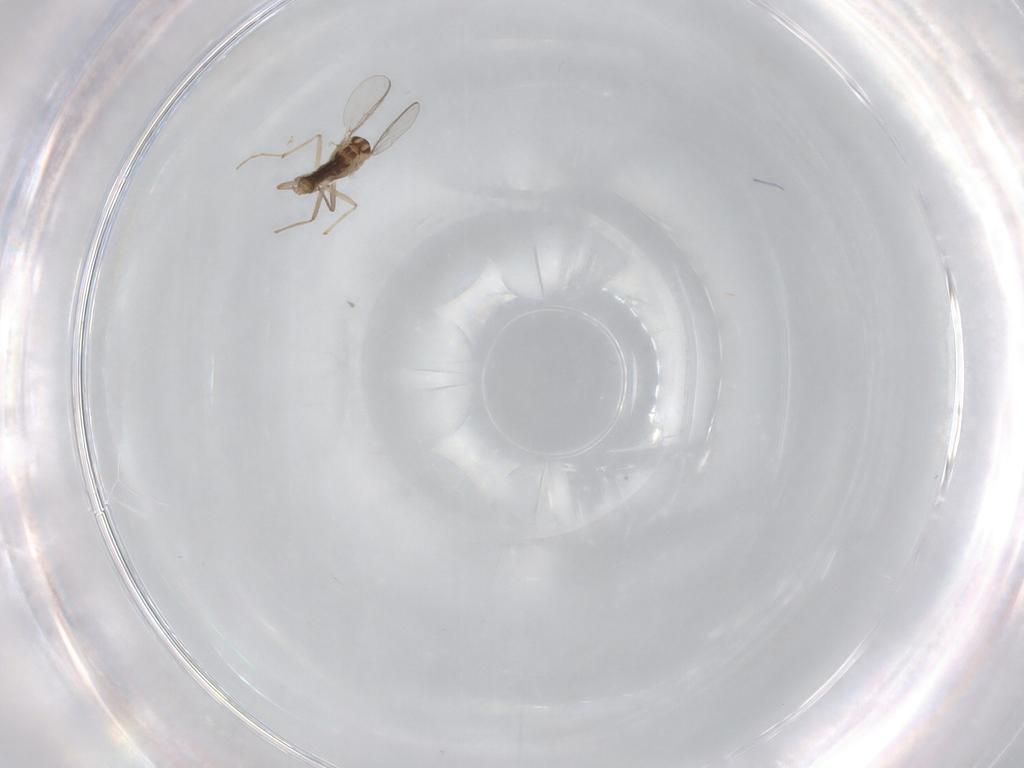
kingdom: Animalia
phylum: Arthropoda
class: Insecta
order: Diptera
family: Chironomidae
